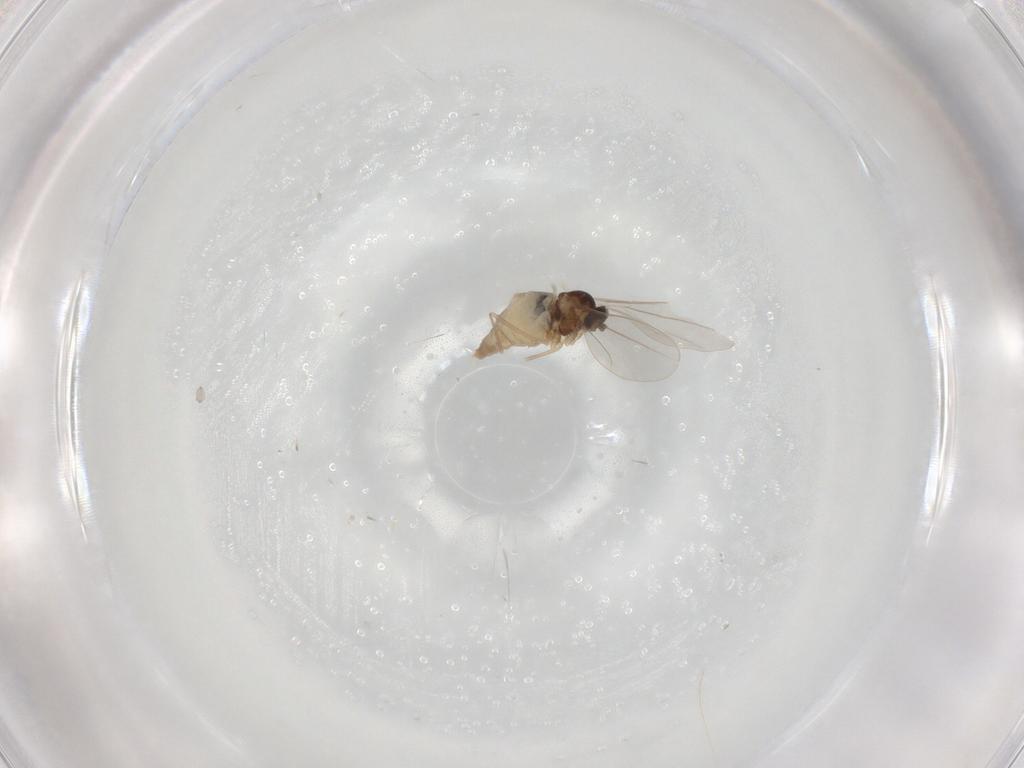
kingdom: Animalia
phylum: Arthropoda
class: Insecta
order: Diptera
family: Cecidomyiidae
